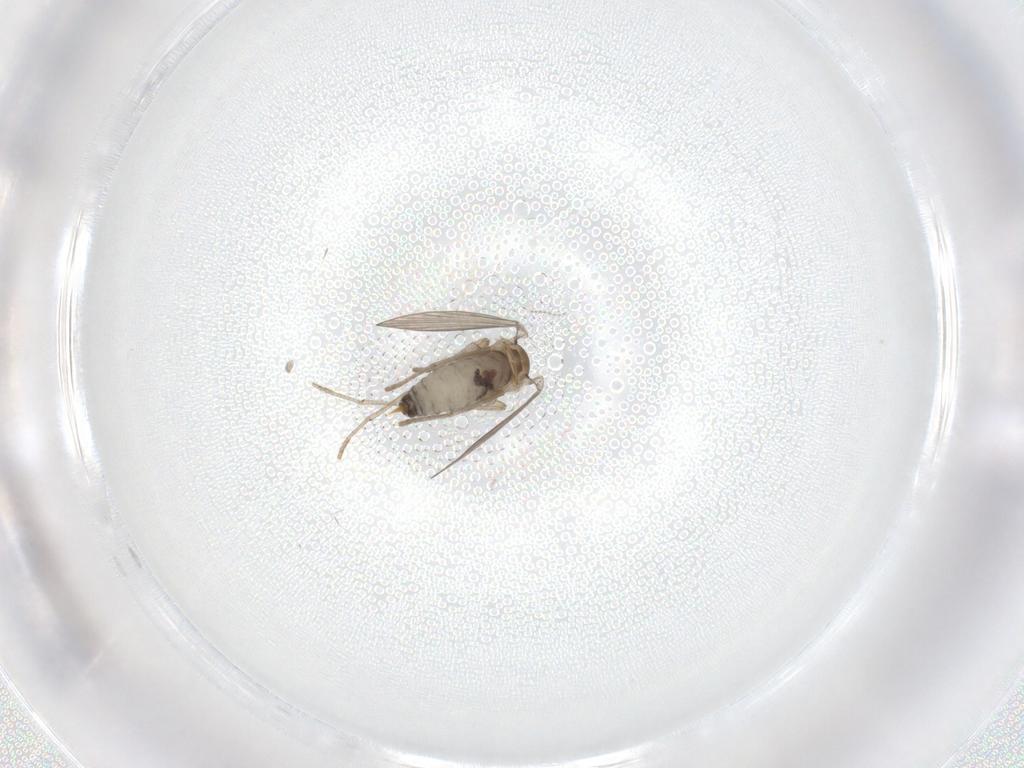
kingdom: Animalia
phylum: Arthropoda
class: Insecta
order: Diptera
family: Psychodidae
